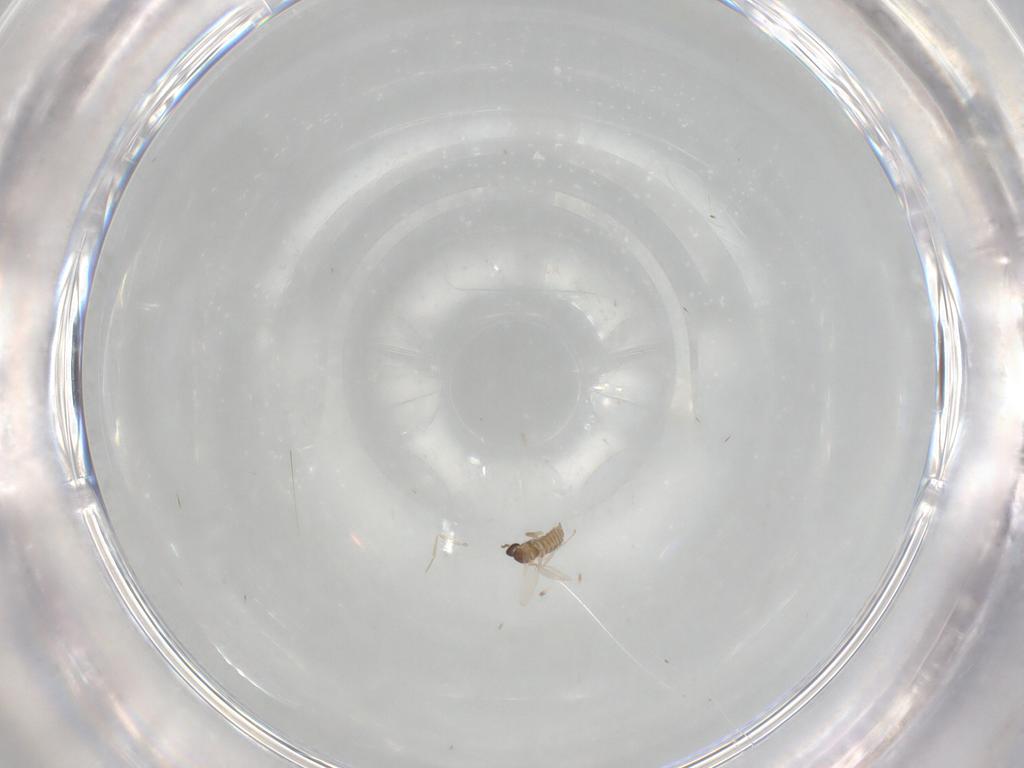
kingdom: Animalia
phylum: Arthropoda
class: Insecta
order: Diptera
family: Cecidomyiidae
